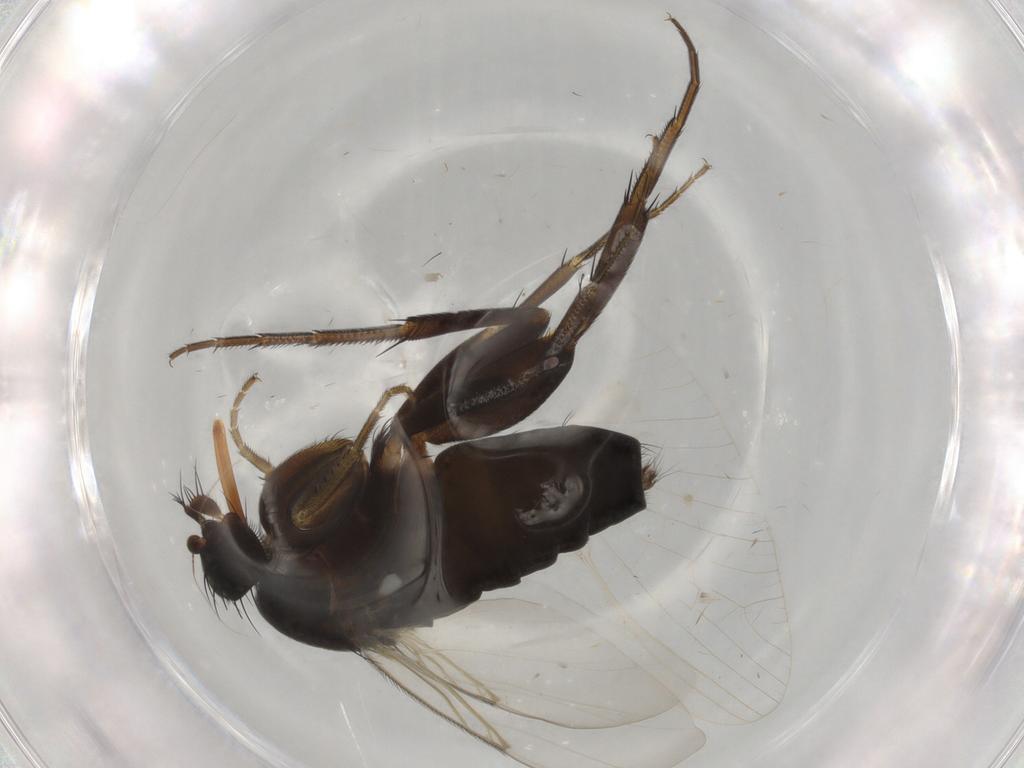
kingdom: Animalia
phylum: Arthropoda
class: Insecta
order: Diptera
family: Phoridae
